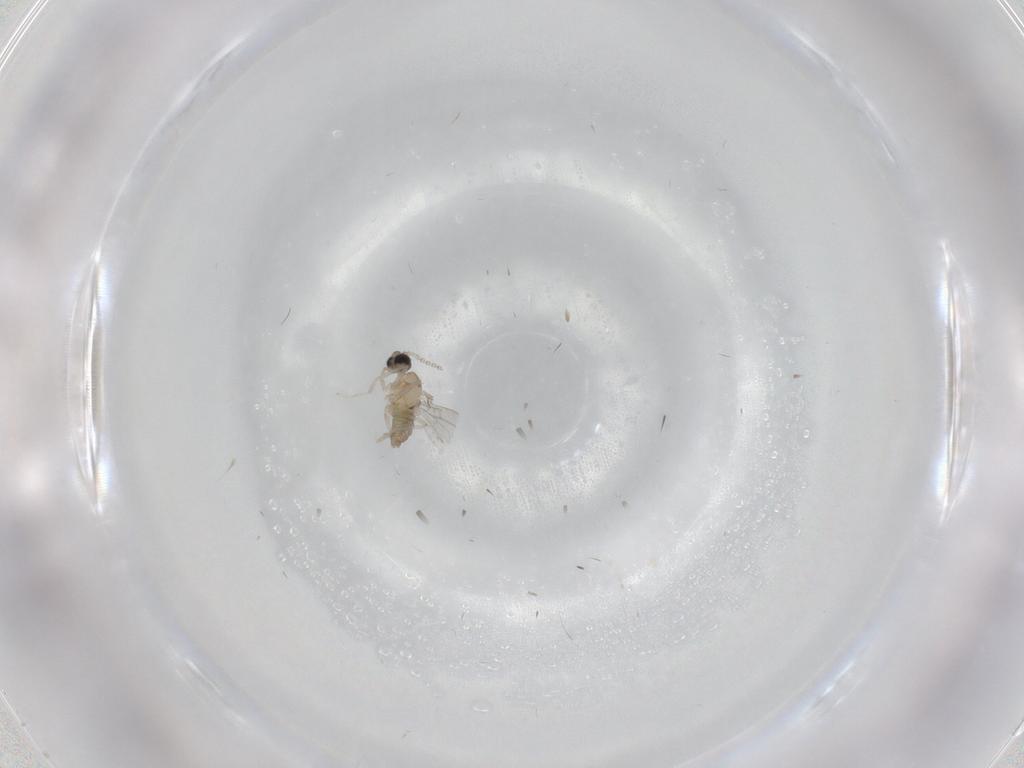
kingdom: Animalia
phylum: Arthropoda
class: Insecta
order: Diptera
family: Cecidomyiidae
